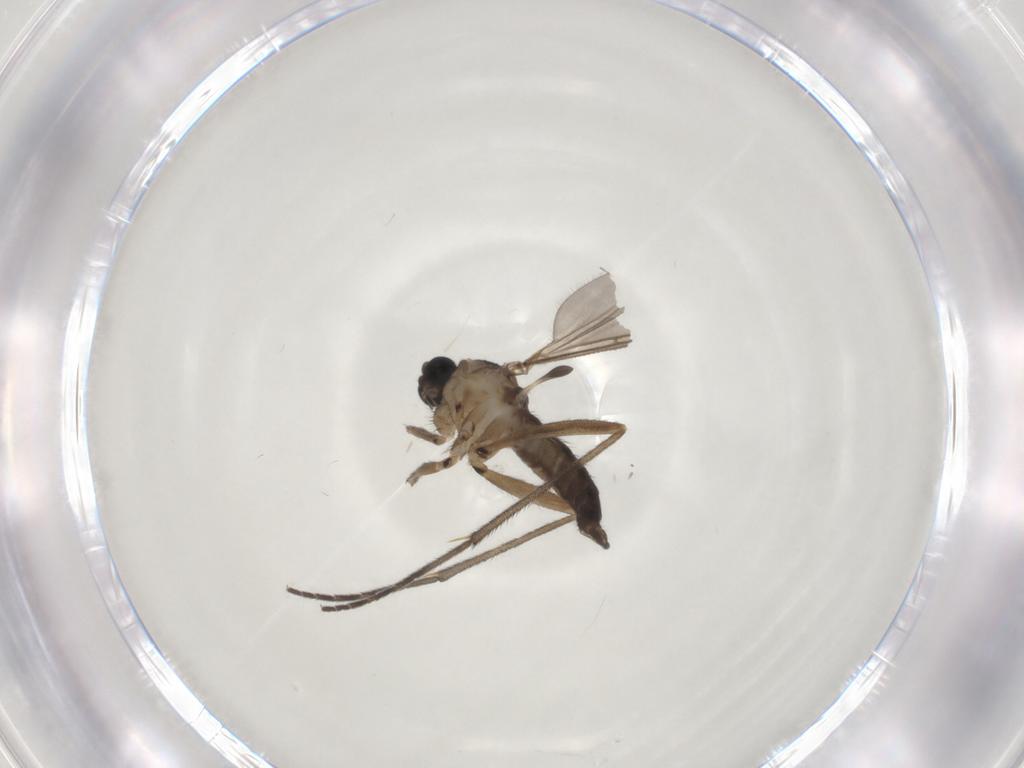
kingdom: Animalia
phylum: Arthropoda
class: Insecta
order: Diptera
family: Sciaridae
